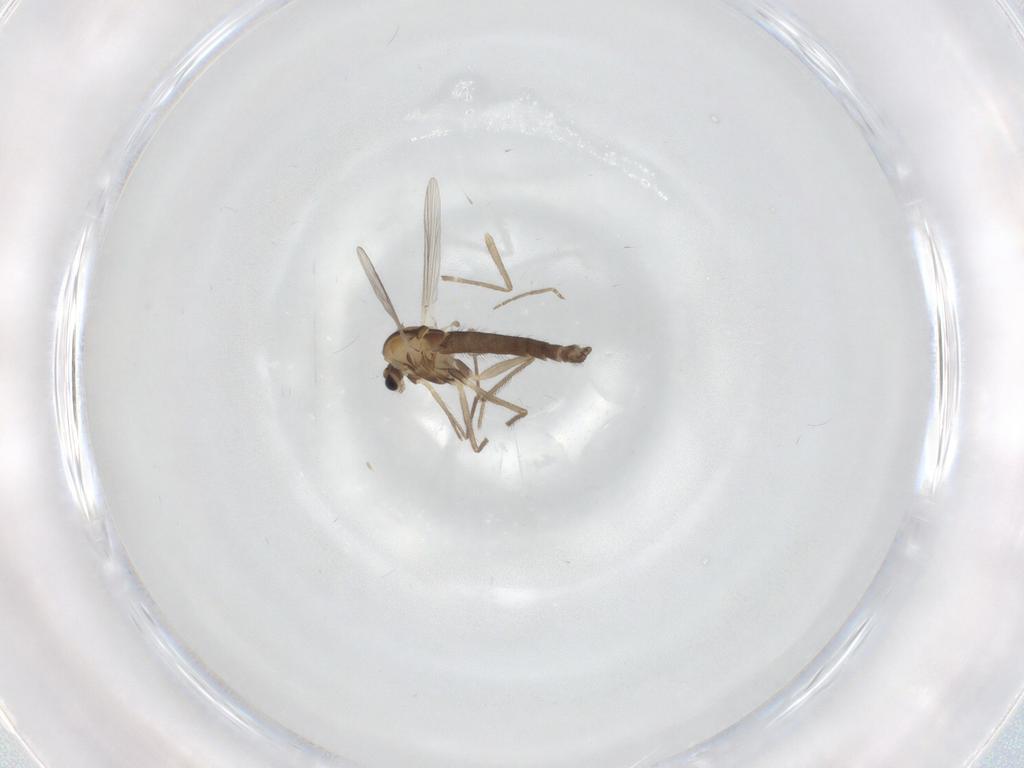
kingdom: Animalia
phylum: Arthropoda
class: Insecta
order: Diptera
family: Chironomidae
